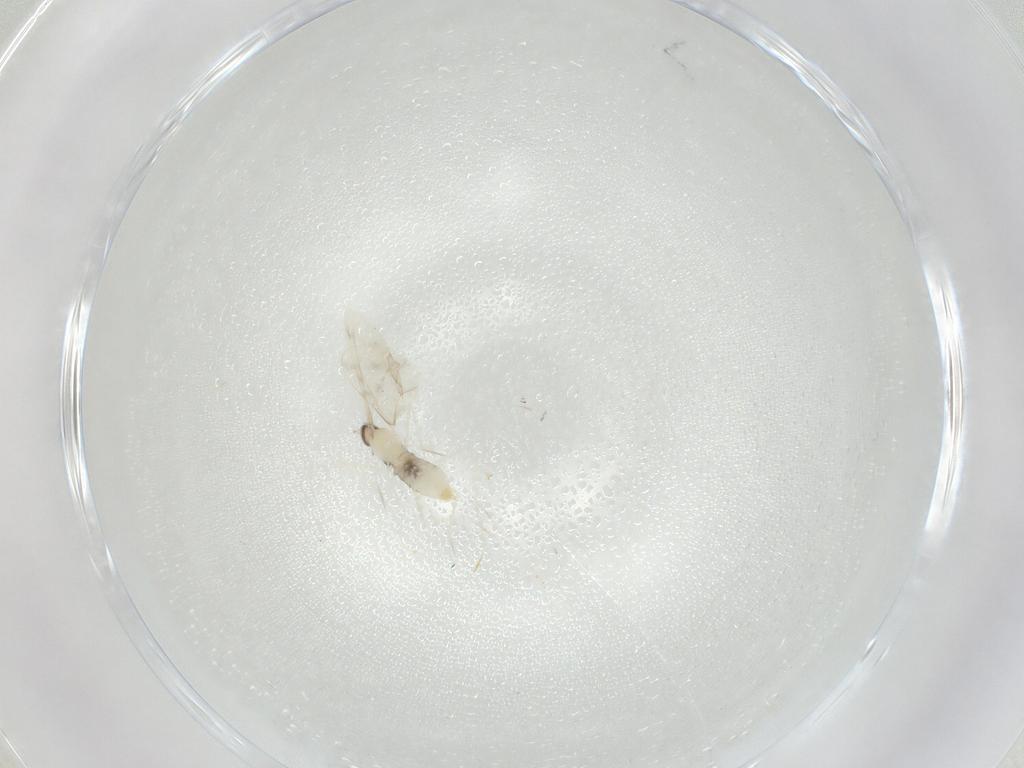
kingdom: Animalia
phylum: Arthropoda
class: Insecta
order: Diptera
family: Cecidomyiidae
